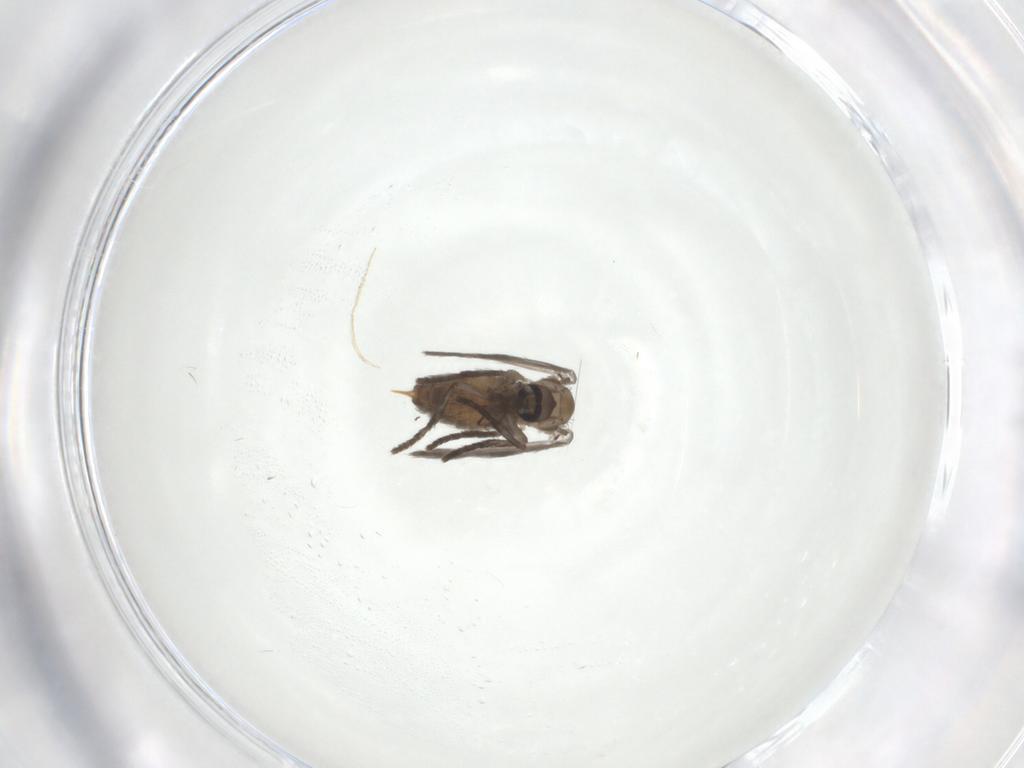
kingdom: Animalia
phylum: Arthropoda
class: Insecta
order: Diptera
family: Psychodidae
